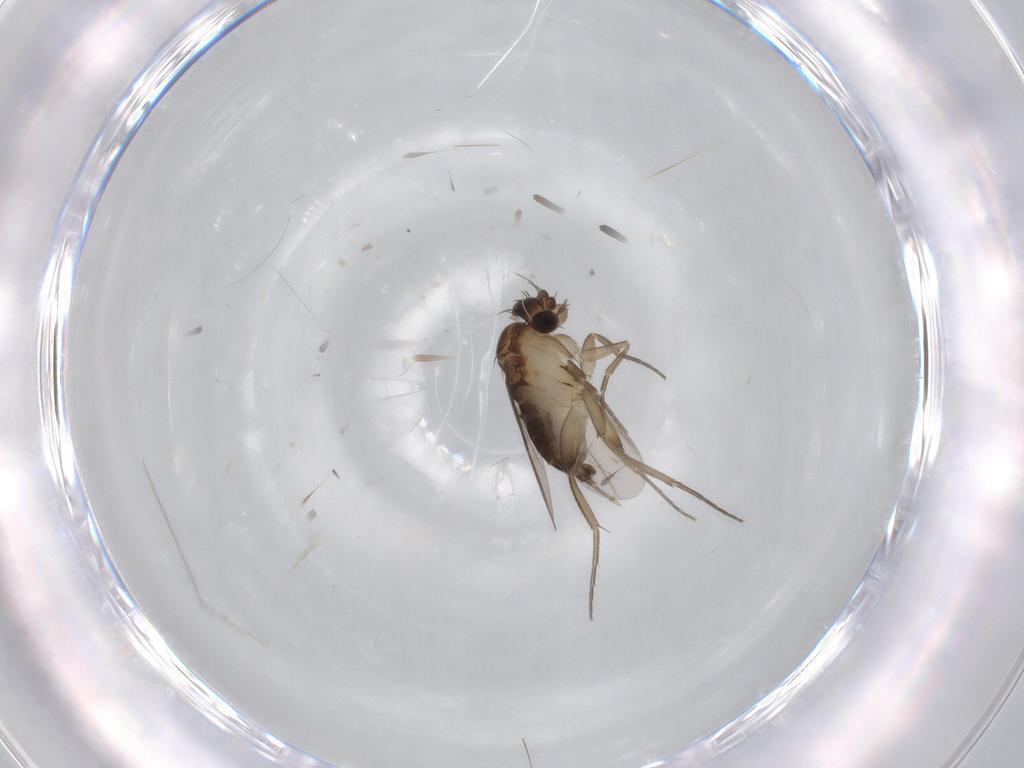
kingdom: Animalia
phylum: Arthropoda
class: Insecta
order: Diptera
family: Phoridae
